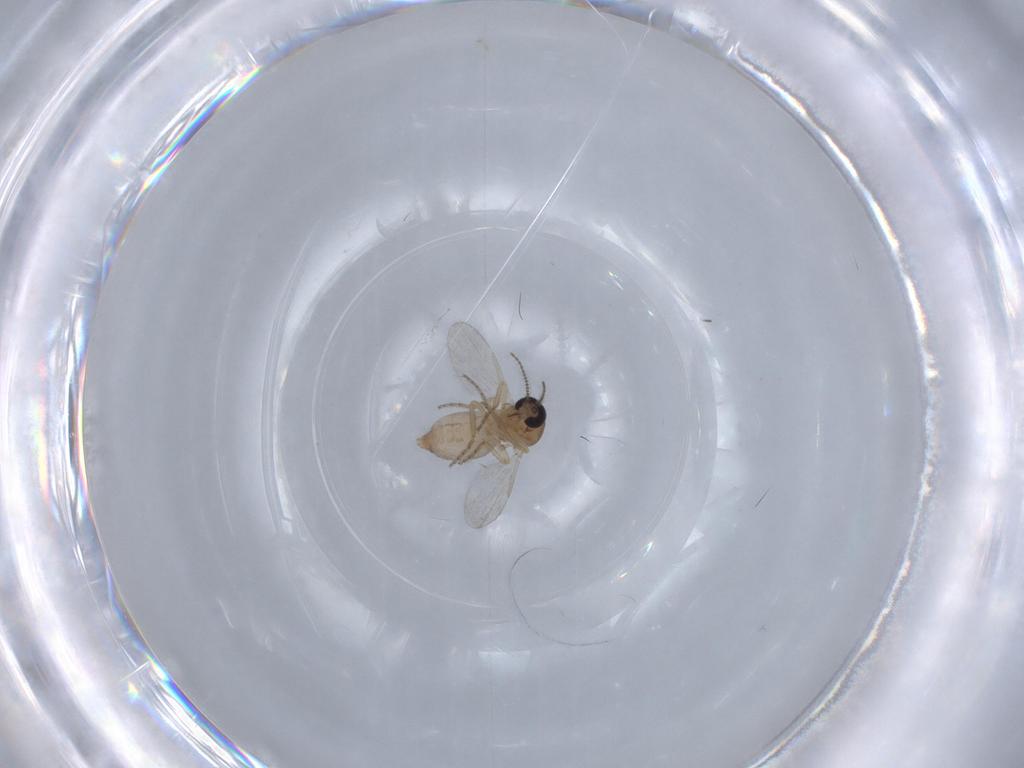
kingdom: Animalia
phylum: Arthropoda
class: Insecta
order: Diptera
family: Ceratopogonidae
